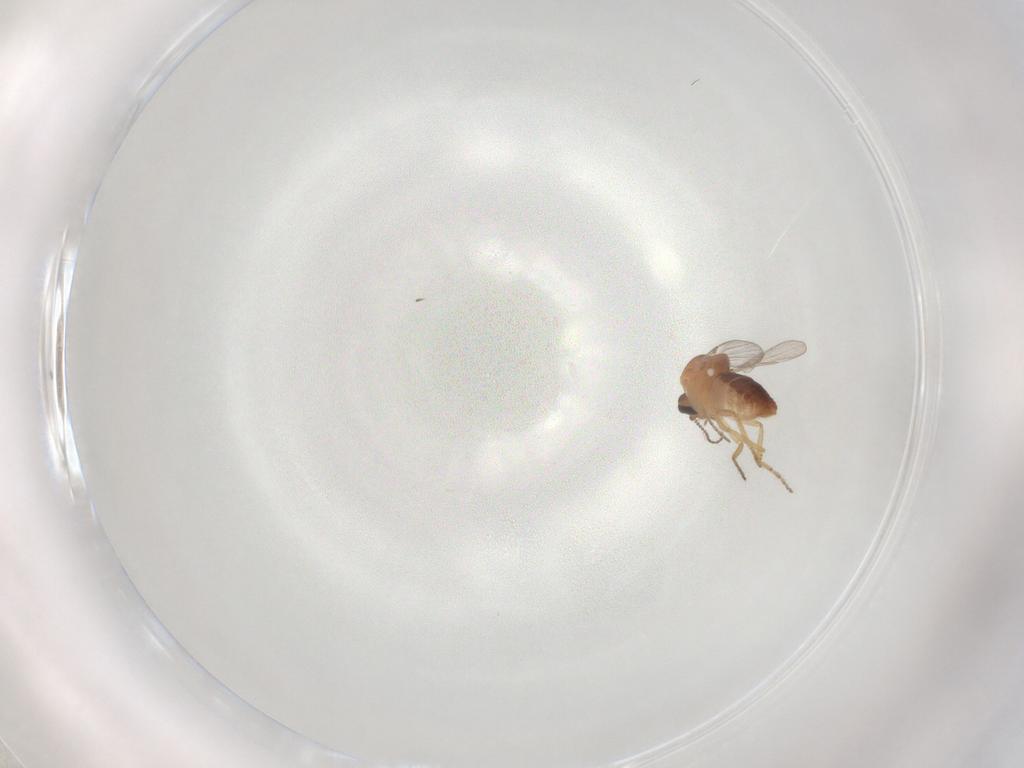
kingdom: Animalia
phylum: Arthropoda
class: Insecta
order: Diptera
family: Ceratopogonidae
